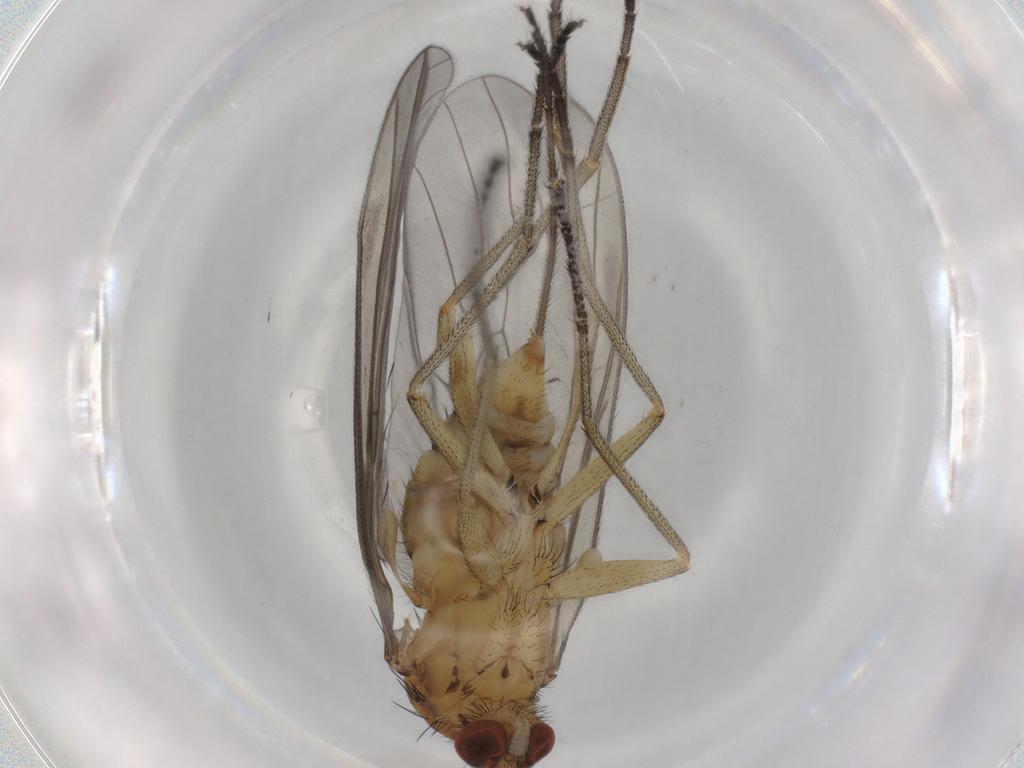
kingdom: Animalia
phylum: Arthropoda
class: Insecta
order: Diptera
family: Brachystomatidae
